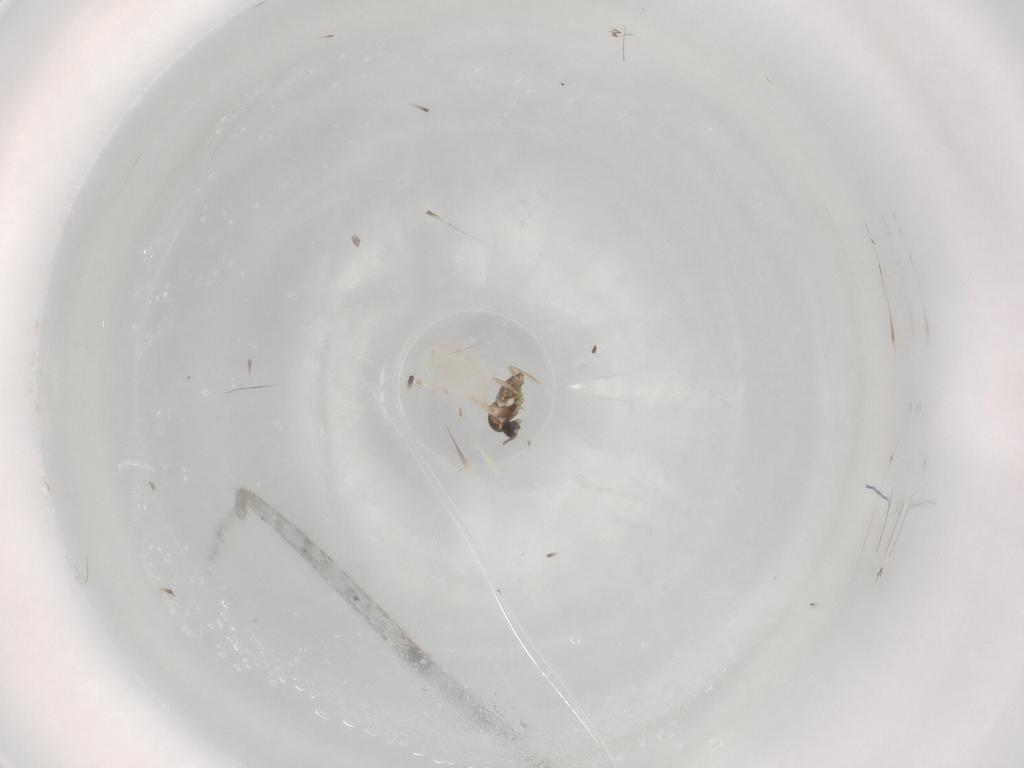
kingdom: Animalia
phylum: Arthropoda
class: Insecta
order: Diptera
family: Cecidomyiidae
